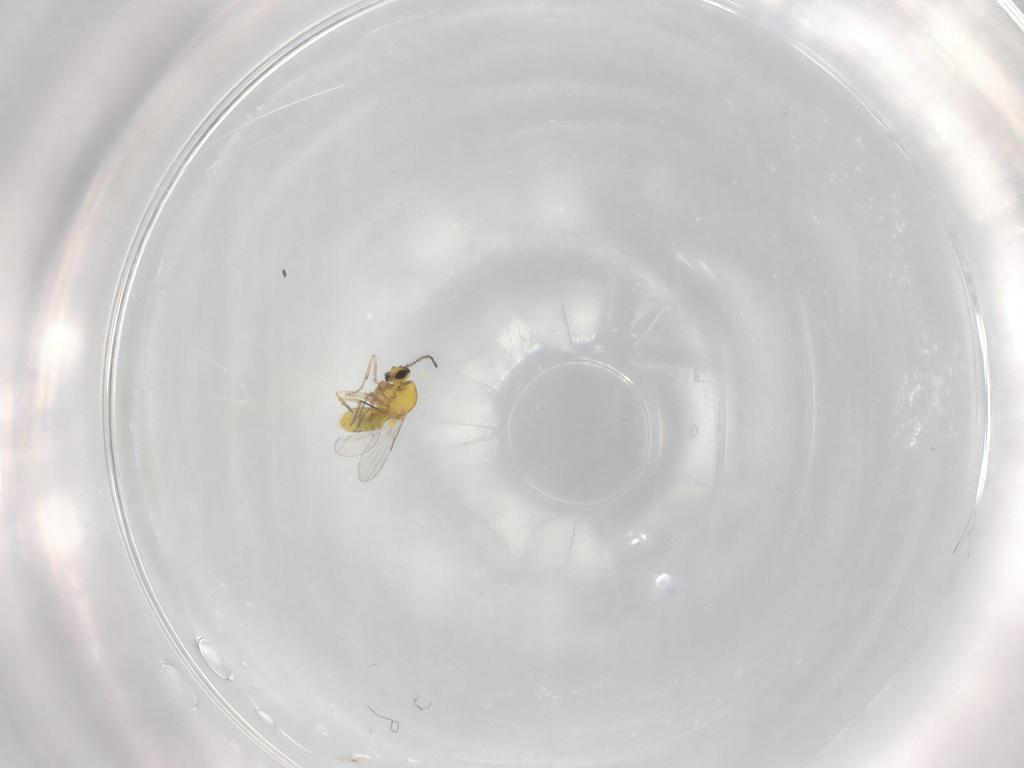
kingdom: Animalia
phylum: Arthropoda
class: Insecta
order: Diptera
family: Ceratopogonidae
